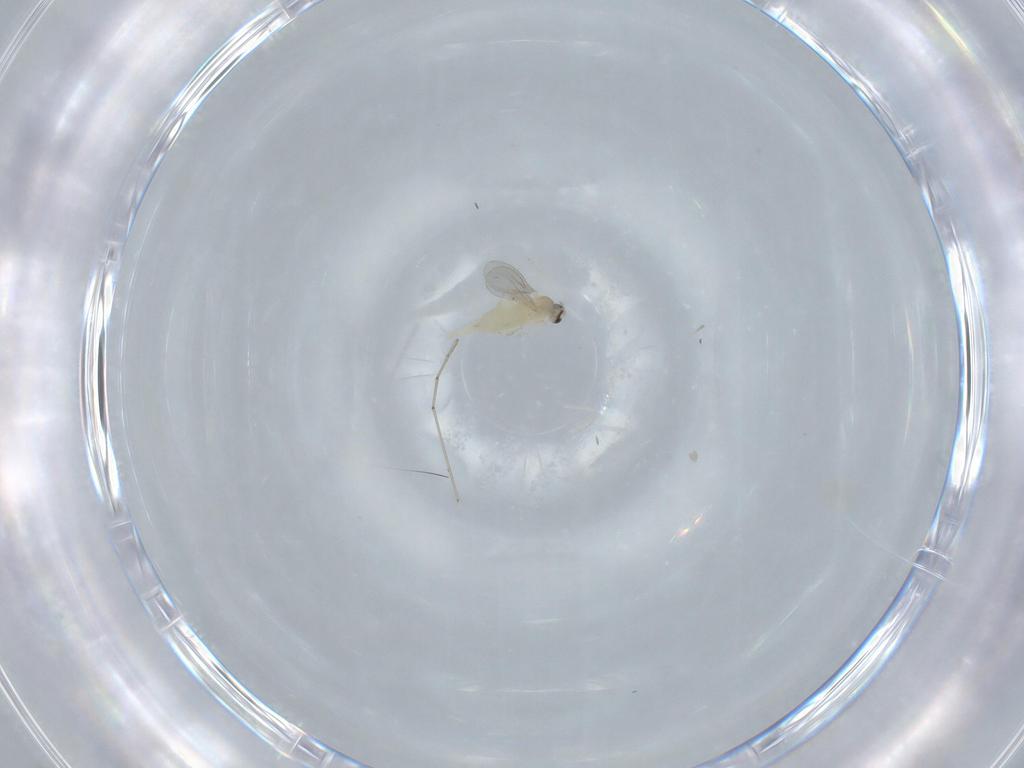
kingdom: Animalia
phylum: Arthropoda
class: Insecta
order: Diptera
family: Cecidomyiidae
